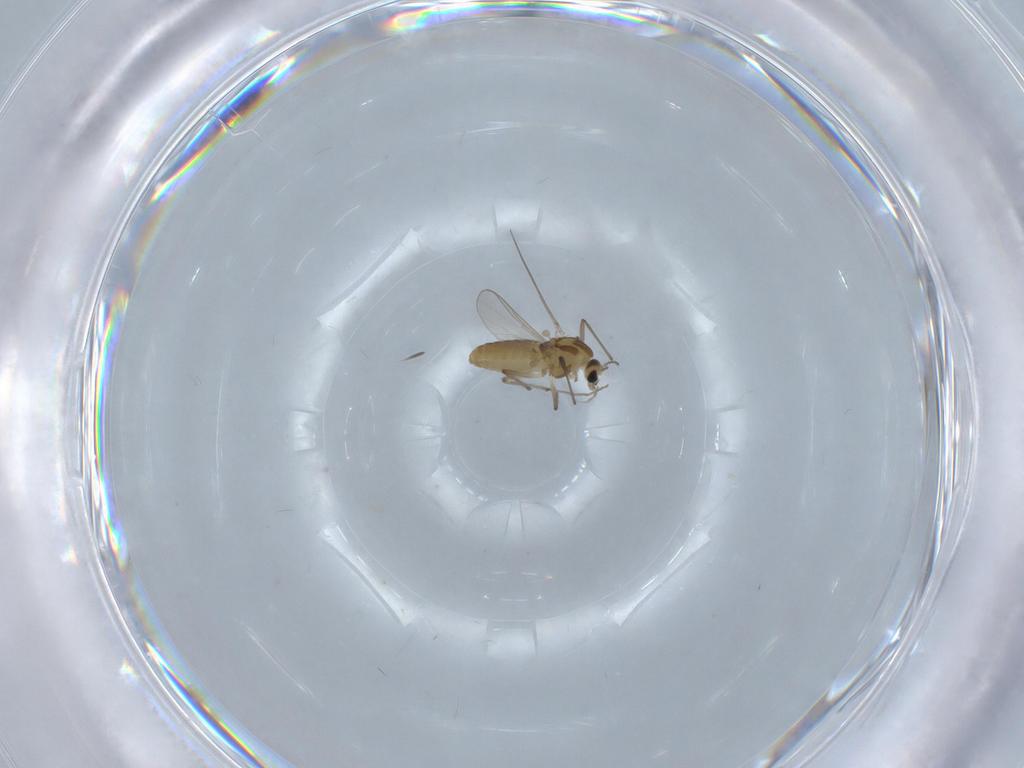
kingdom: Animalia
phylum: Arthropoda
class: Insecta
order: Diptera
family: Chironomidae
